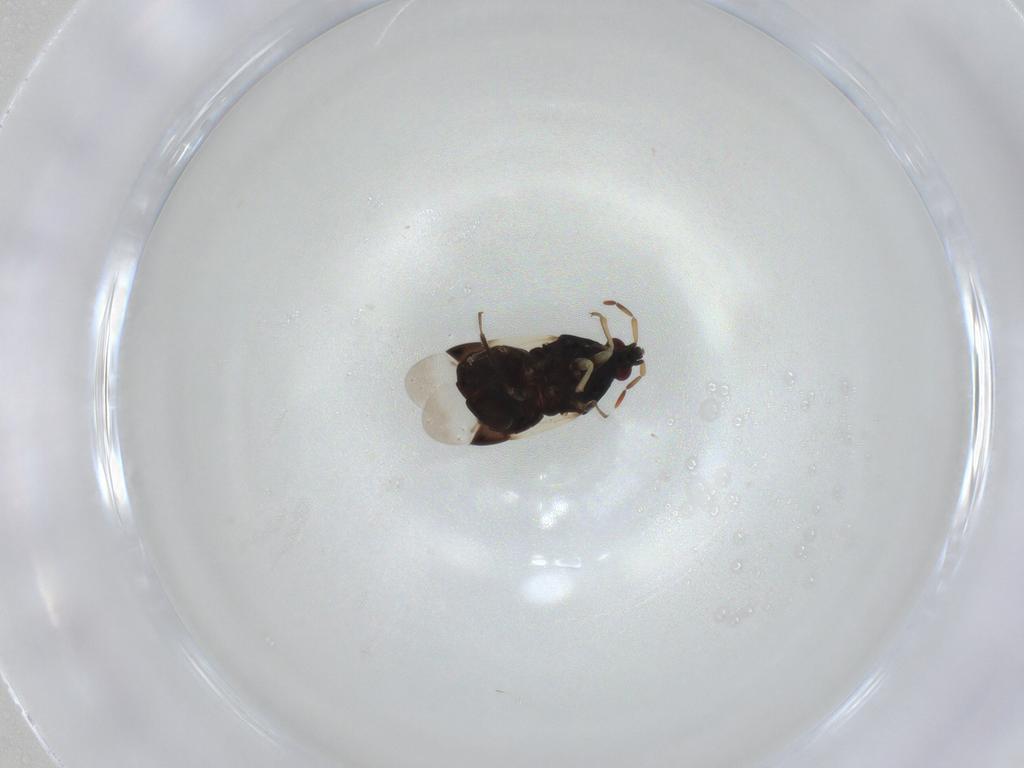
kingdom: Animalia
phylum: Arthropoda
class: Insecta
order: Hemiptera
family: Anthocoridae
